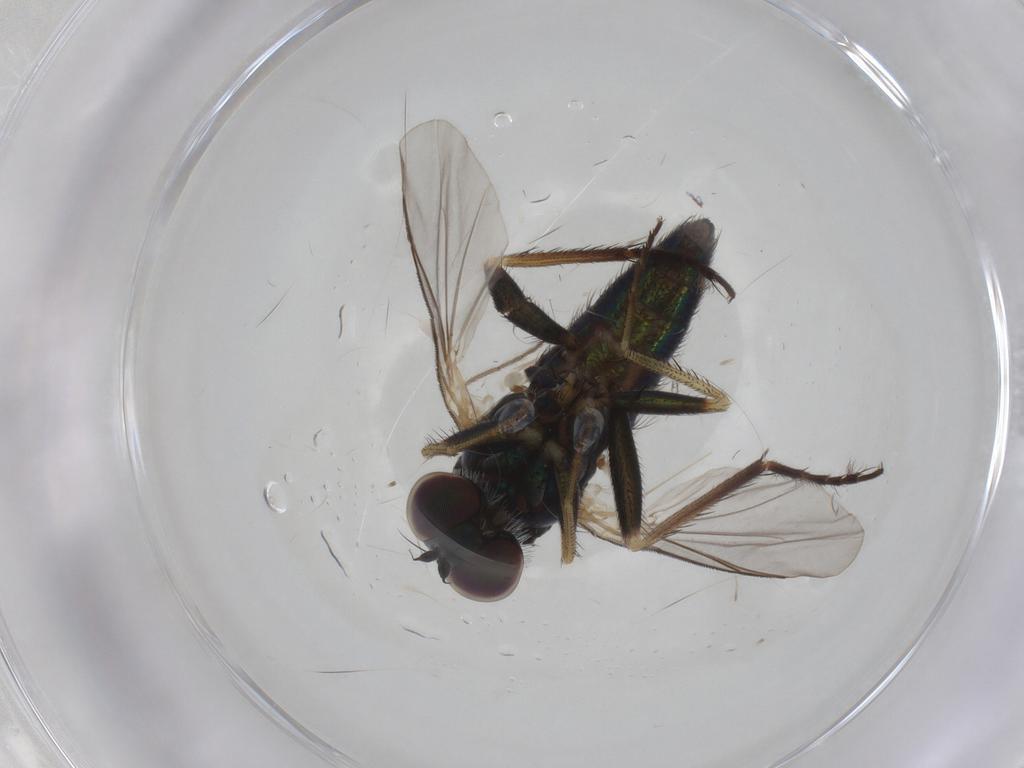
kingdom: Animalia
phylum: Arthropoda
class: Insecta
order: Diptera
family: Dolichopodidae
